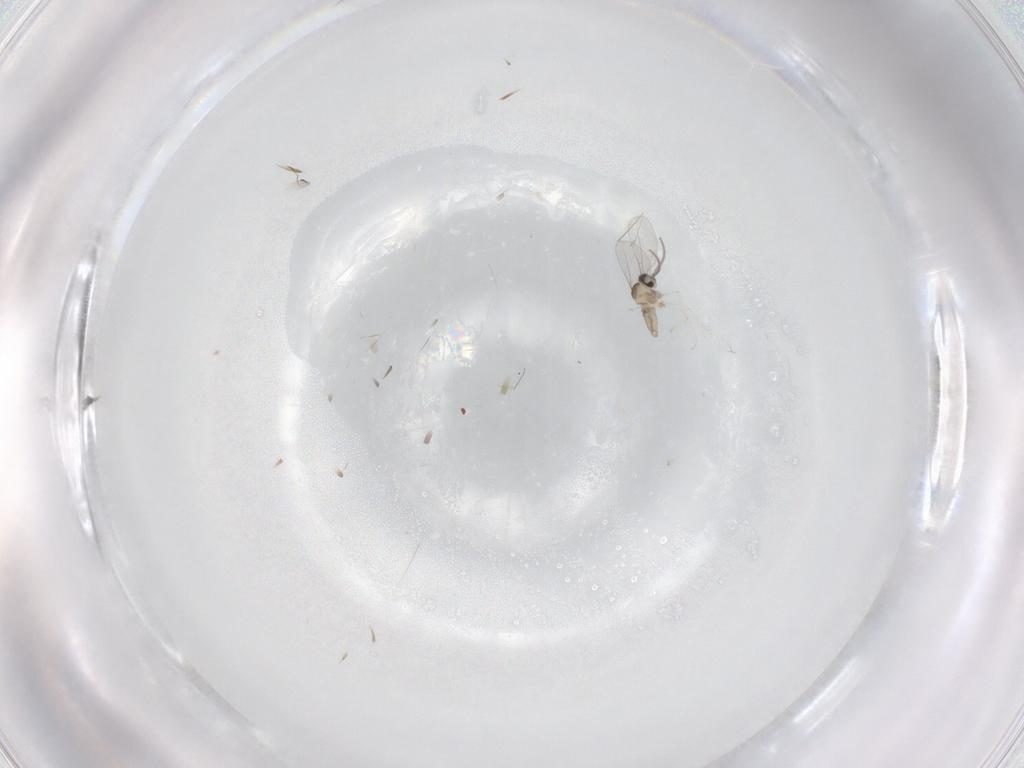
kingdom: Animalia
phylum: Arthropoda
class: Insecta
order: Diptera
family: Cecidomyiidae
